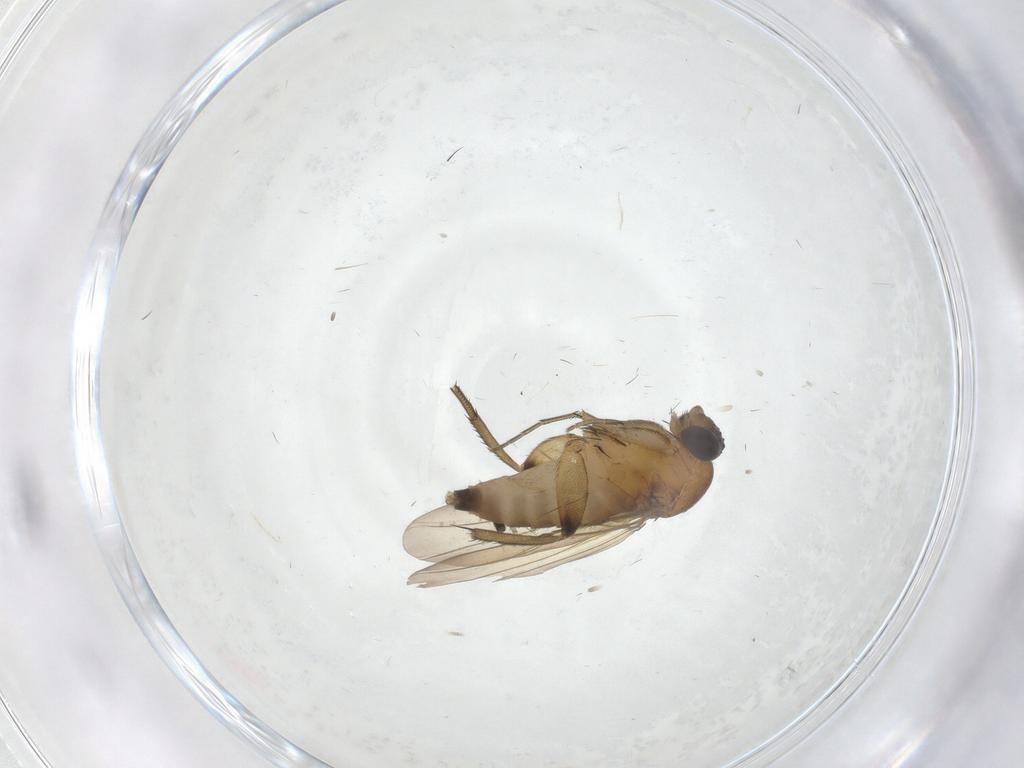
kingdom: Animalia
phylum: Arthropoda
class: Insecta
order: Diptera
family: Phoridae
